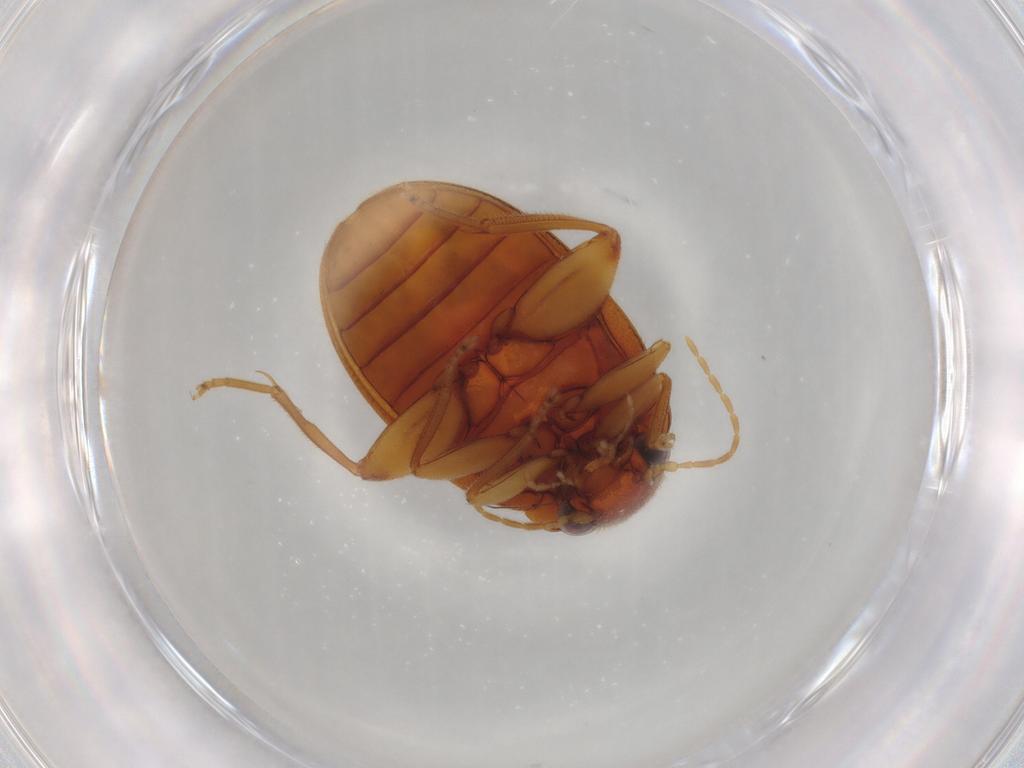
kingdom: Animalia
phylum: Arthropoda
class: Insecta
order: Coleoptera
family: Scirtidae
